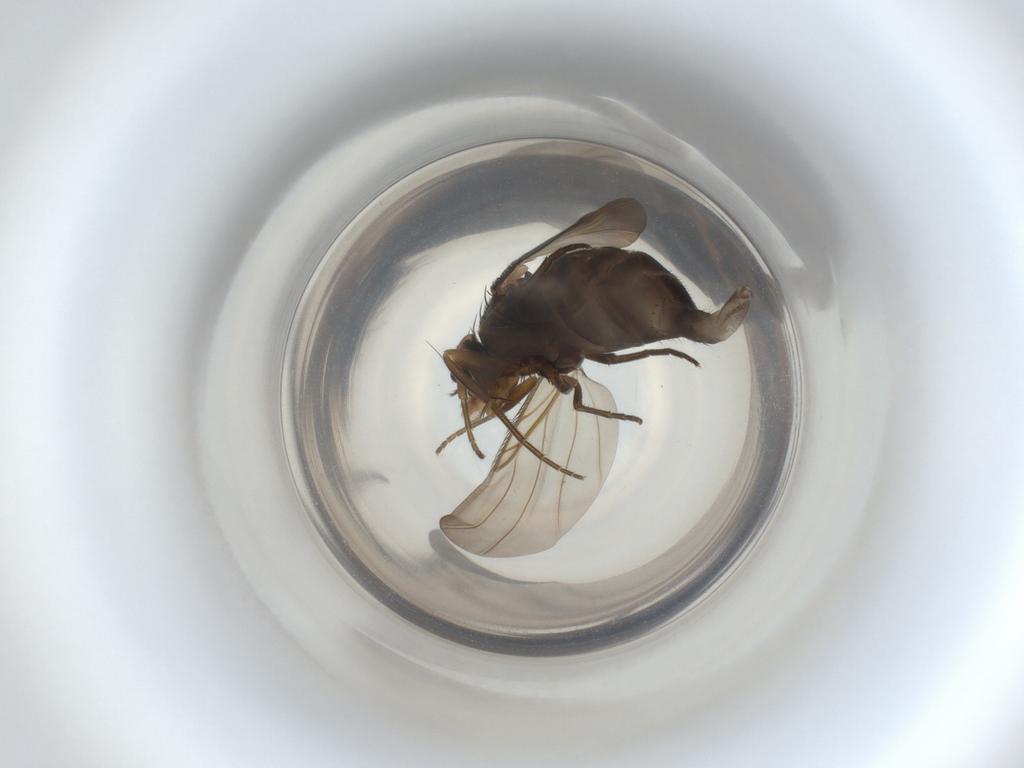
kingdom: Animalia
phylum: Arthropoda
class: Insecta
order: Diptera
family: Phoridae
